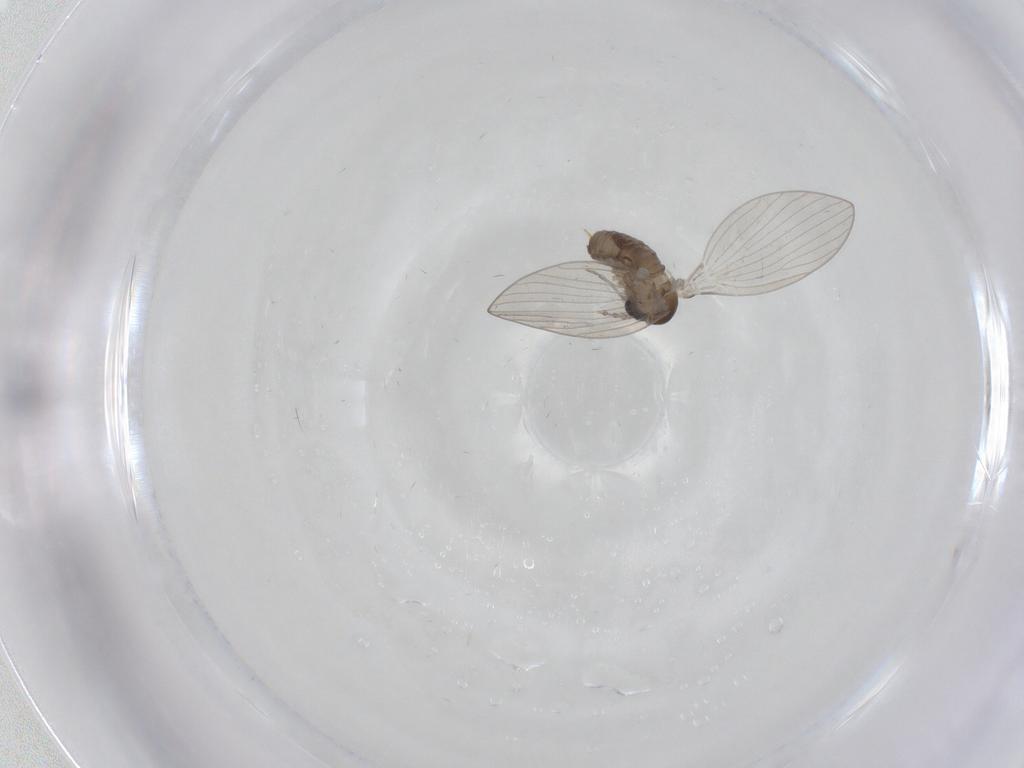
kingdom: Animalia
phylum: Arthropoda
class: Insecta
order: Diptera
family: Psychodidae
